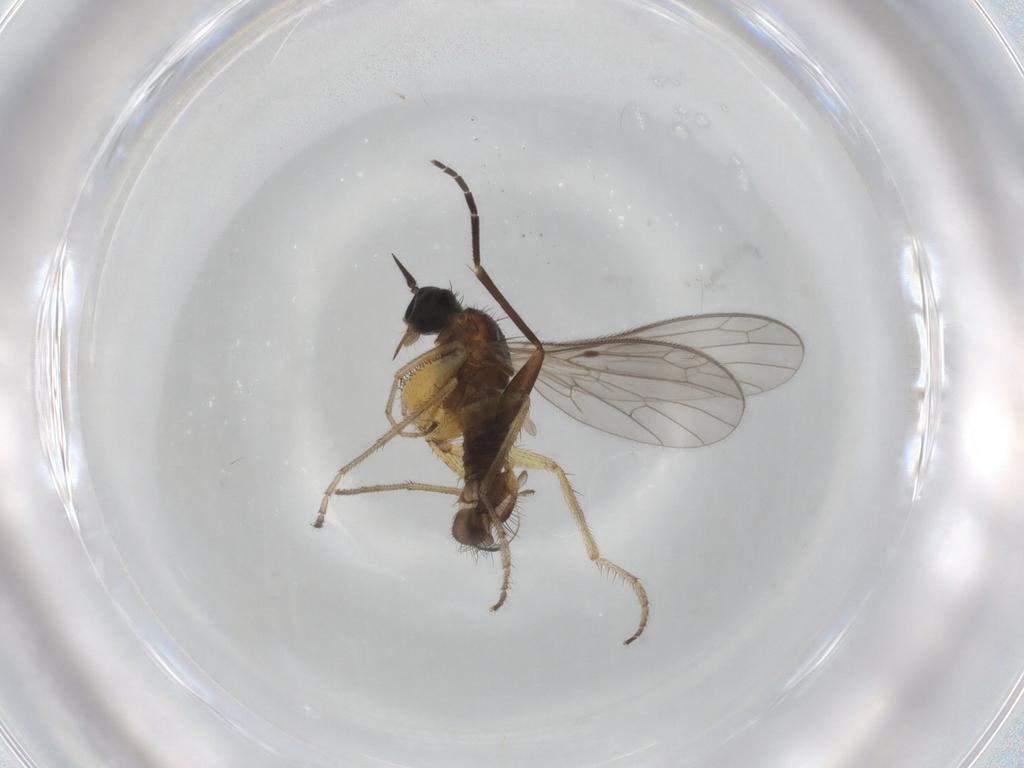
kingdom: Animalia
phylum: Arthropoda
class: Insecta
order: Diptera
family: Chironomidae
